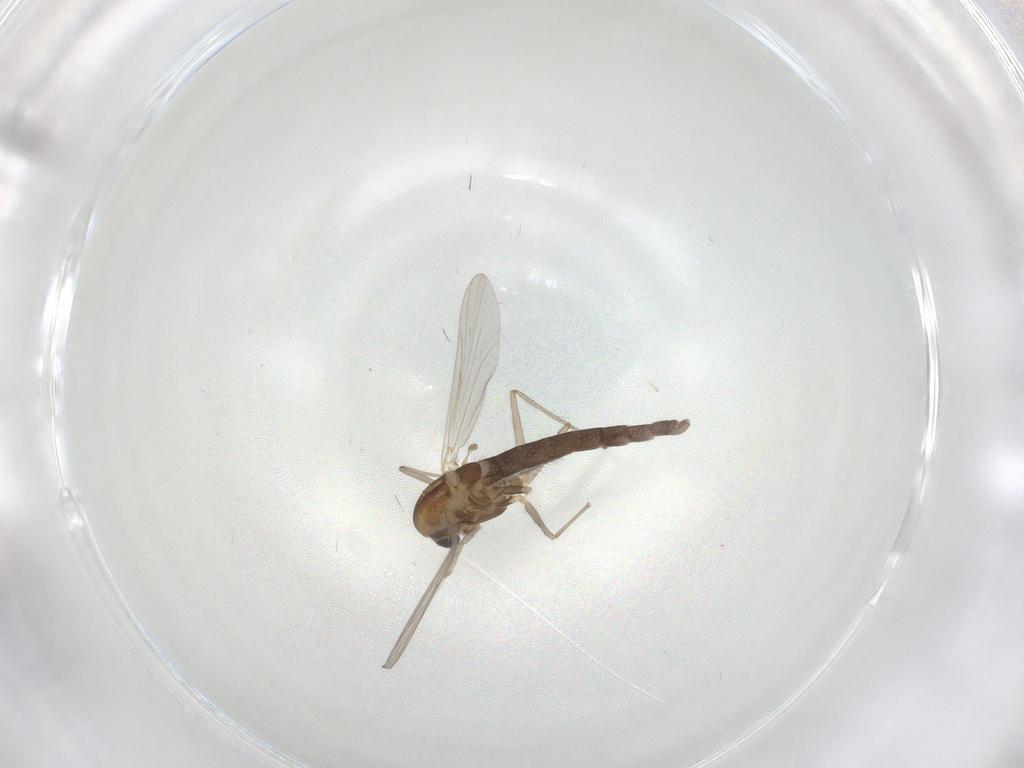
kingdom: Animalia
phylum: Arthropoda
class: Insecta
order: Diptera
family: Chironomidae
